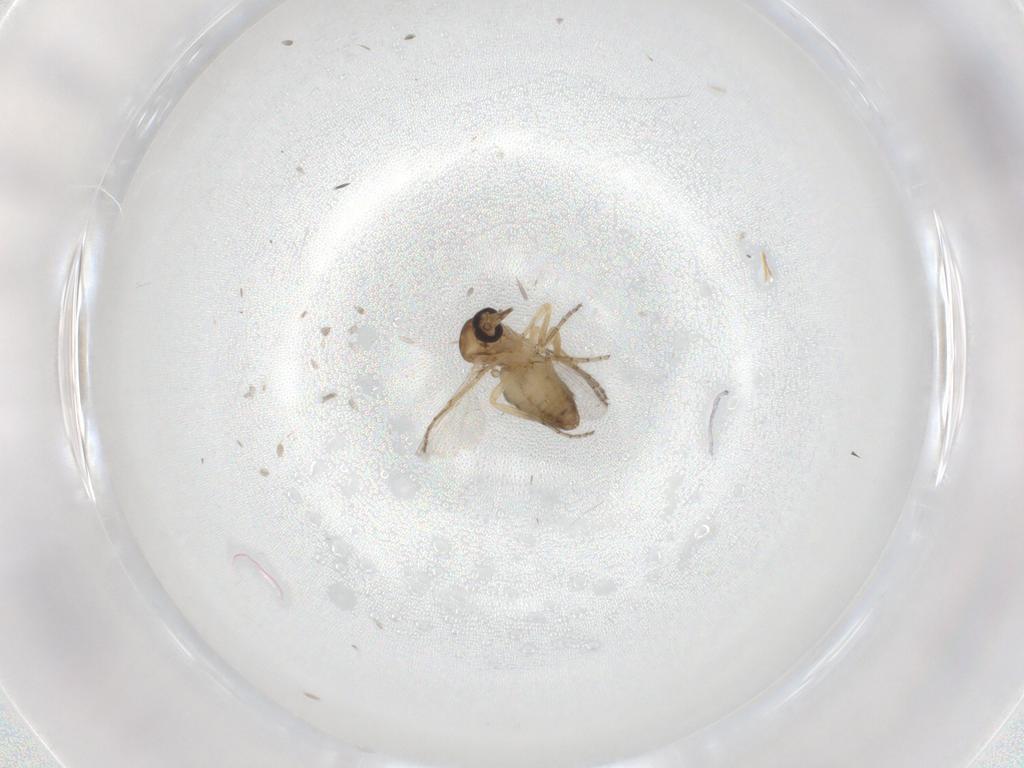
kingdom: Animalia
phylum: Arthropoda
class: Insecta
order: Diptera
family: Ceratopogonidae
